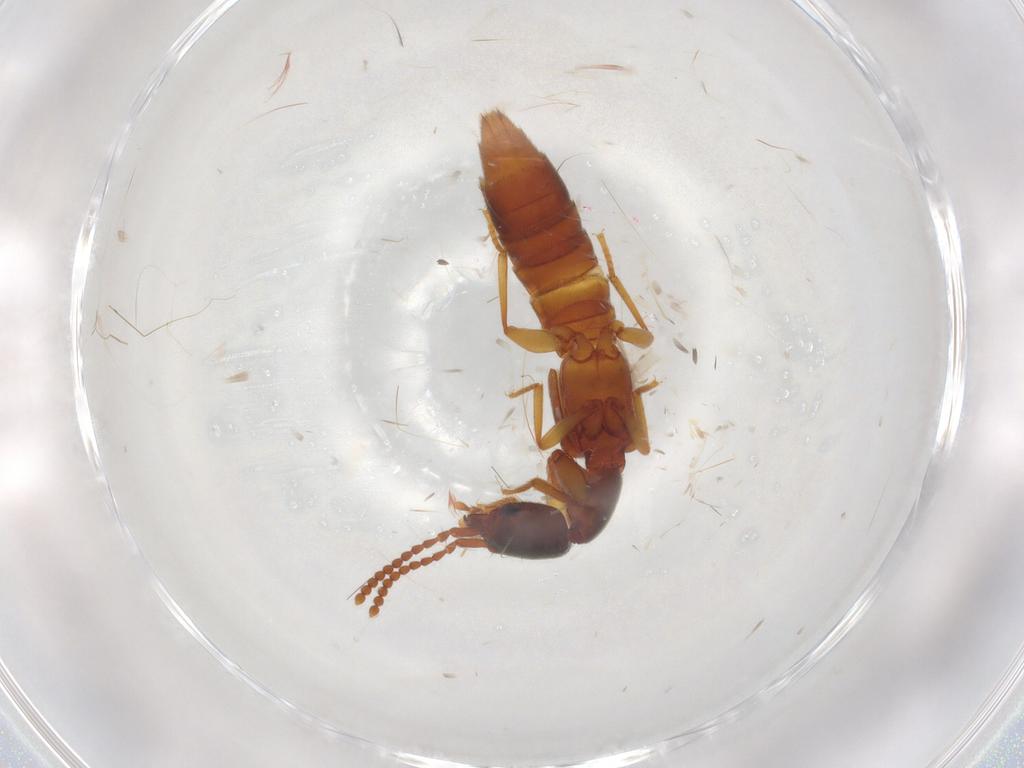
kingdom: Animalia
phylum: Arthropoda
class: Insecta
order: Coleoptera
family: Staphylinidae
